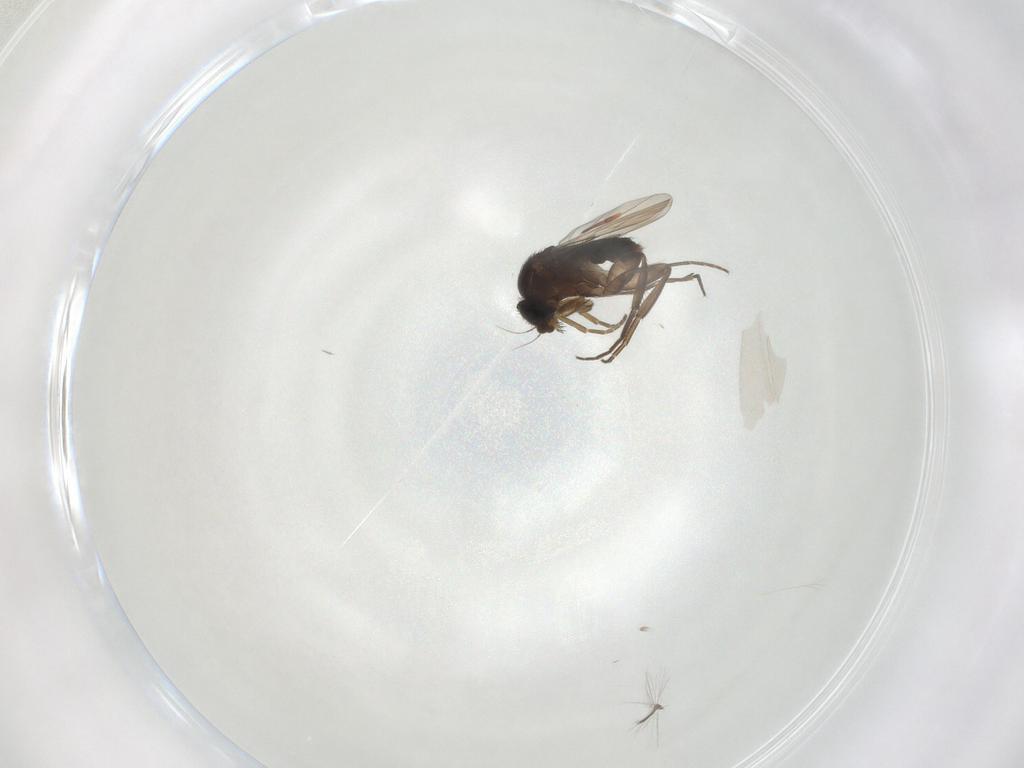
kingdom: Animalia
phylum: Arthropoda
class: Insecta
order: Diptera
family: Phoridae
